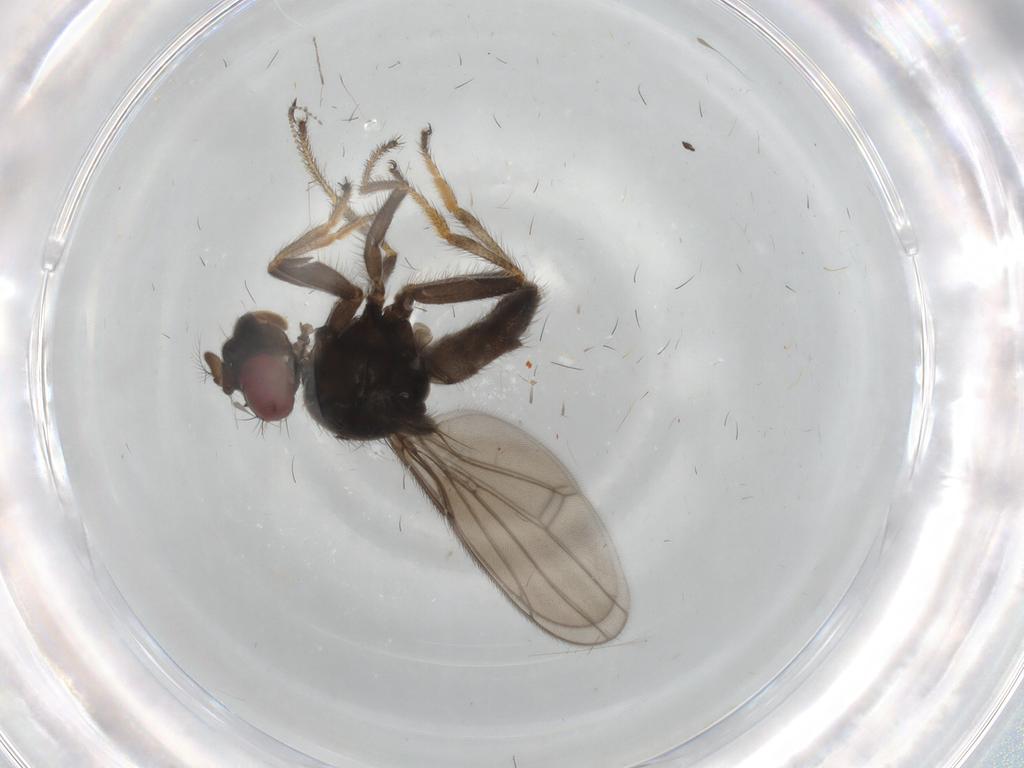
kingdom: Animalia
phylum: Arthropoda
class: Insecta
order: Diptera
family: Ephydridae
